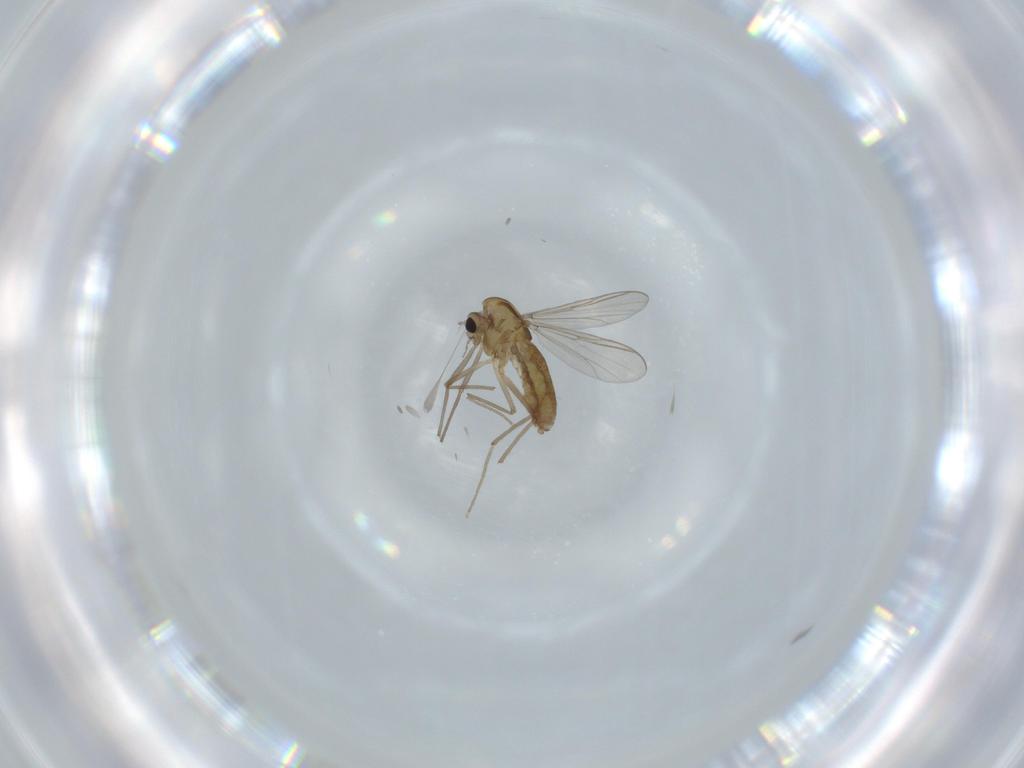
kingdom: Animalia
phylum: Arthropoda
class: Insecta
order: Diptera
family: Chironomidae
